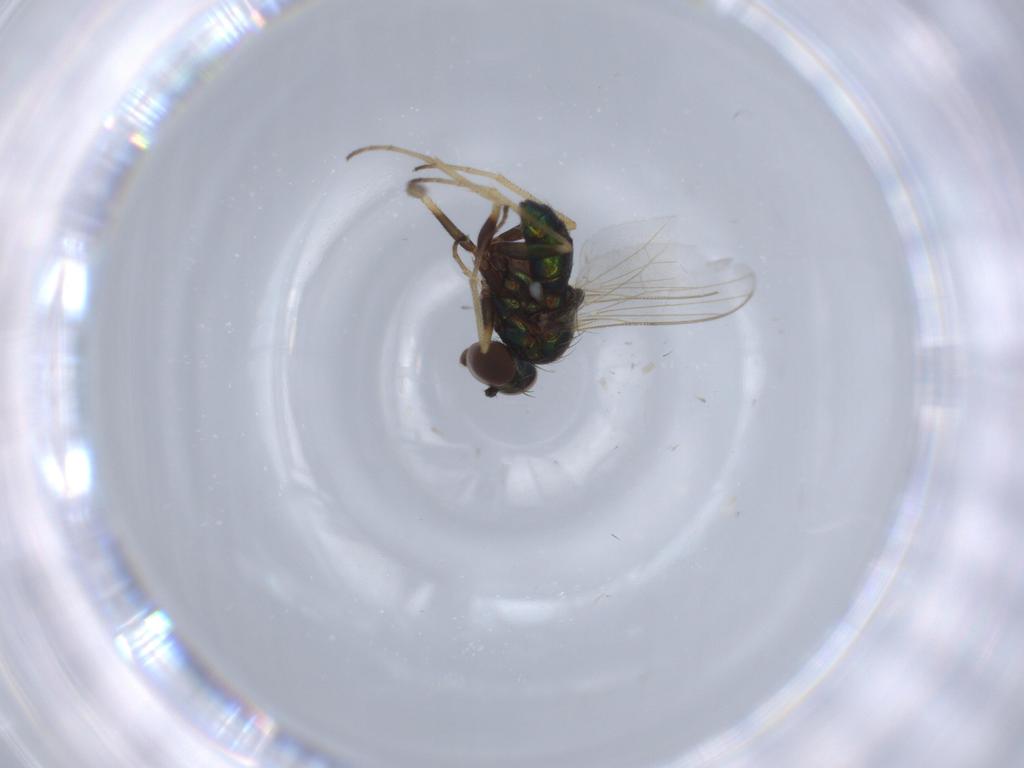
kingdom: Animalia
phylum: Arthropoda
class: Insecta
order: Diptera
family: Dolichopodidae
